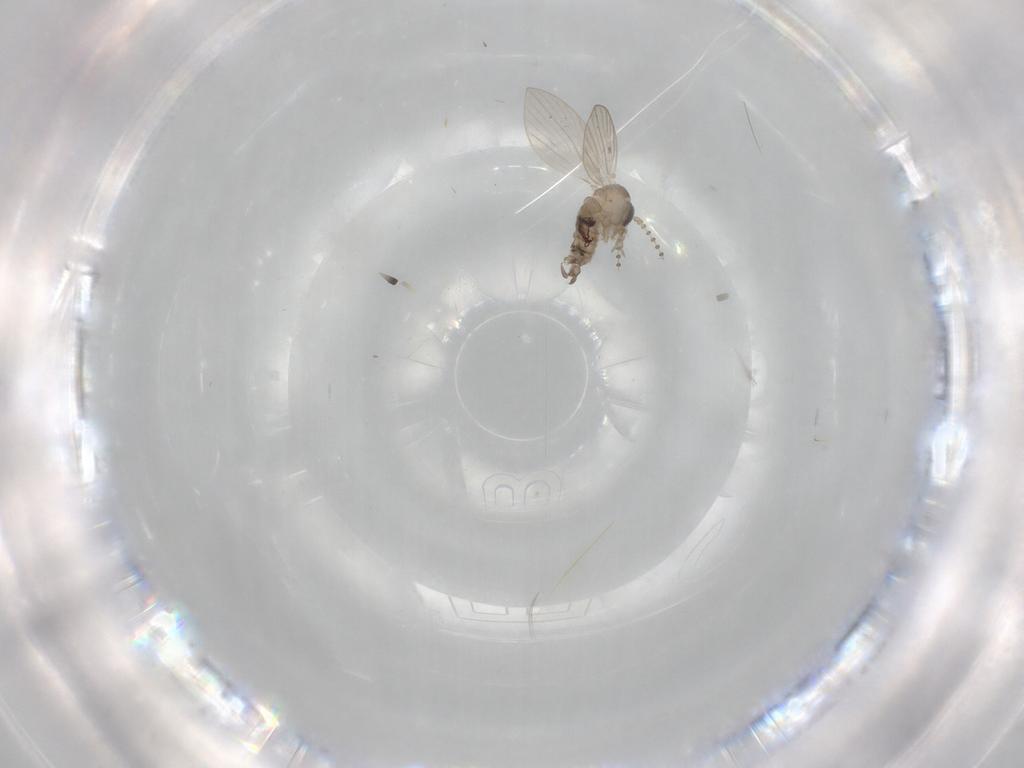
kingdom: Animalia
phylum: Arthropoda
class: Insecta
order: Diptera
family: Psychodidae
